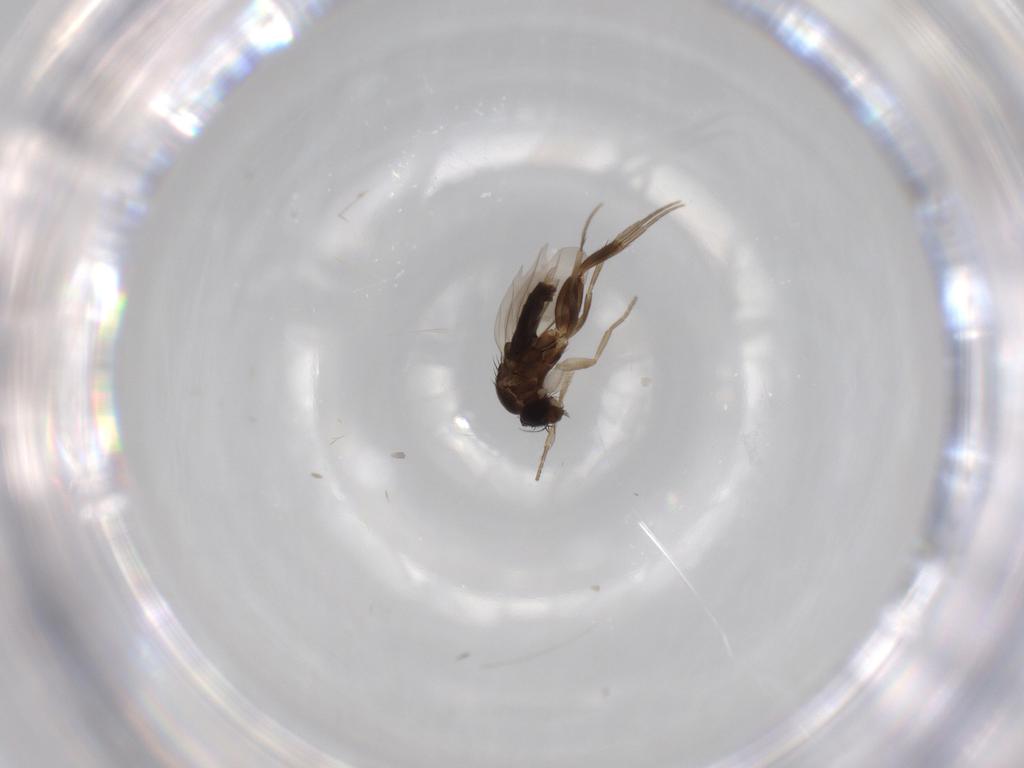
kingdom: Animalia
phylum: Arthropoda
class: Insecta
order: Diptera
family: Phoridae
